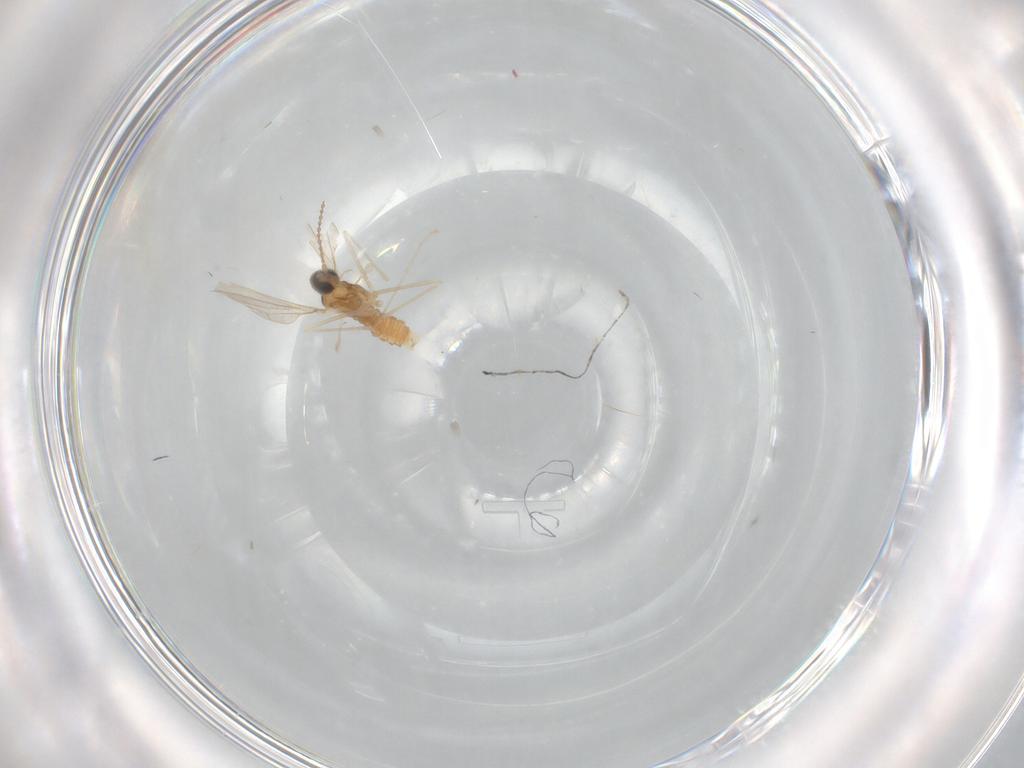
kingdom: Animalia
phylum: Arthropoda
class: Insecta
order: Diptera
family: Cecidomyiidae
